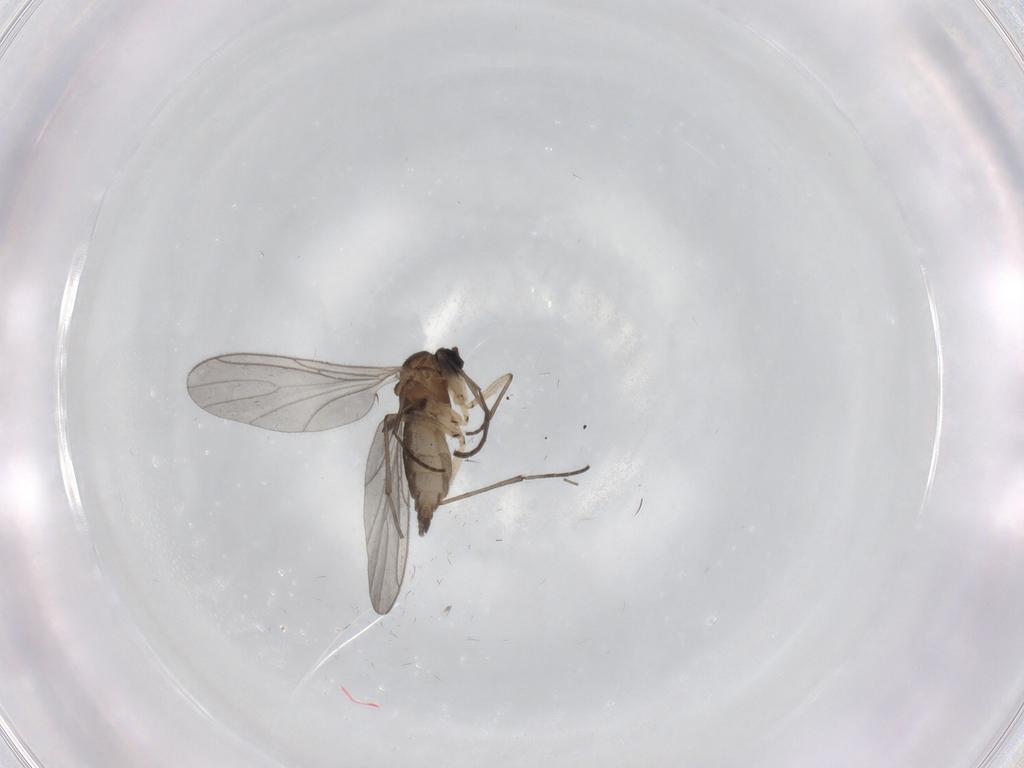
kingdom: Animalia
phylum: Arthropoda
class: Insecta
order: Diptera
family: Sciaridae
